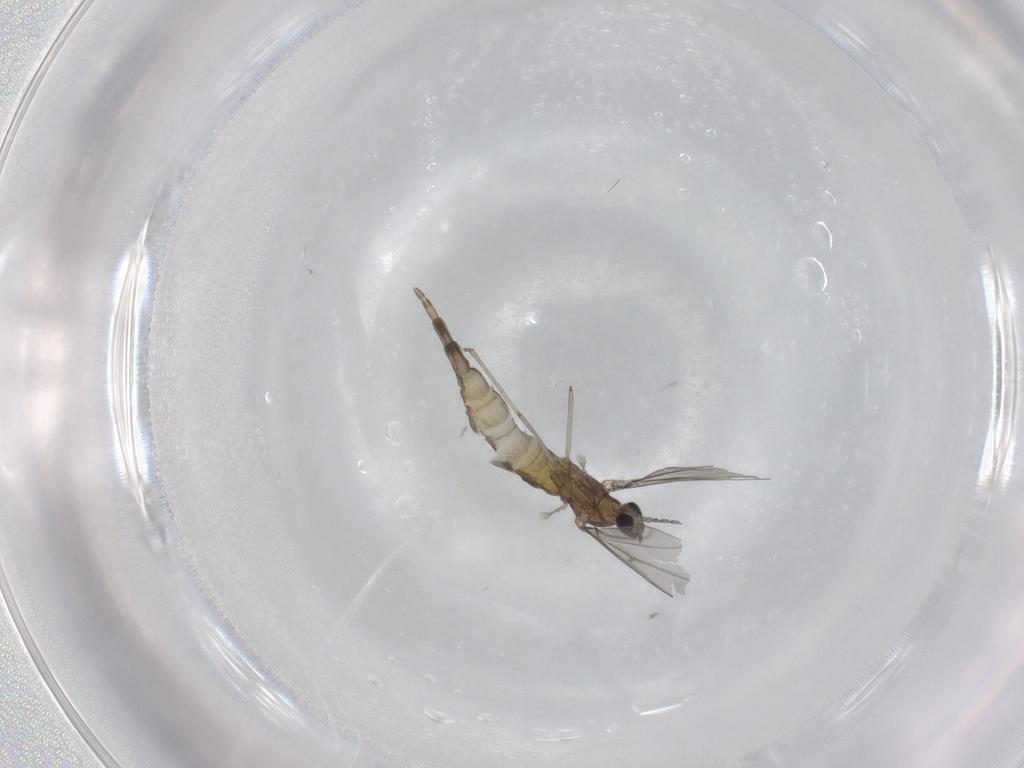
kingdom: Animalia
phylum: Arthropoda
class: Insecta
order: Diptera
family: Cecidomyiidae
